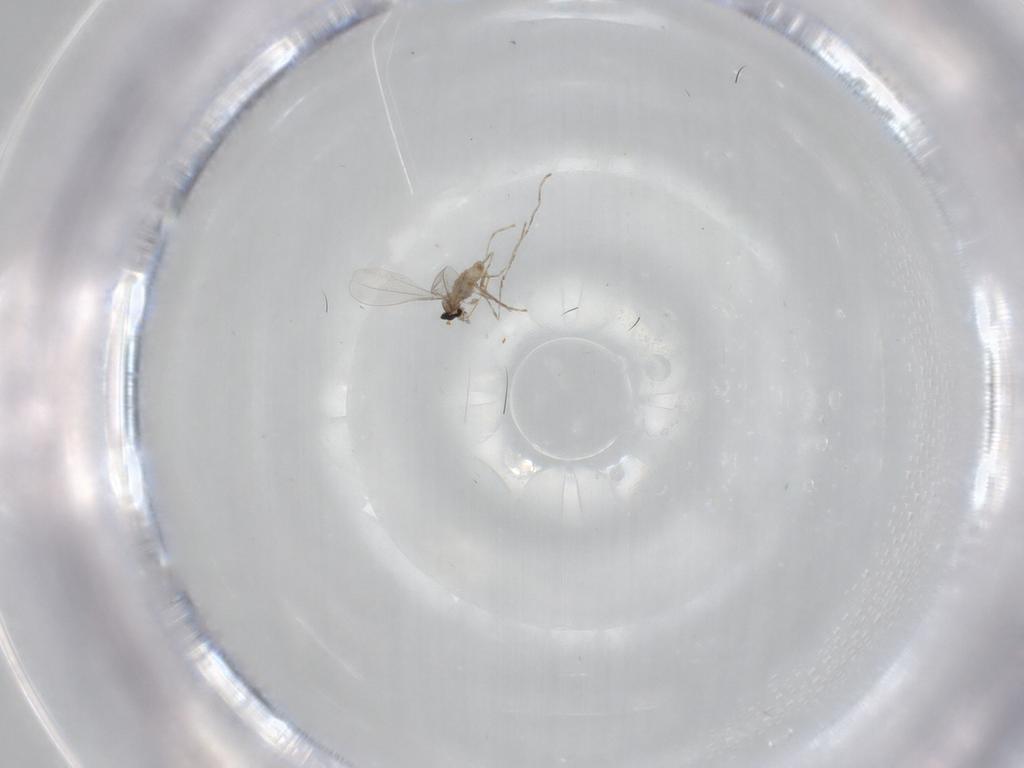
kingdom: Animalia
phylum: Arthropoda
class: Insecta
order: Diptera
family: Cecidomyiidae
